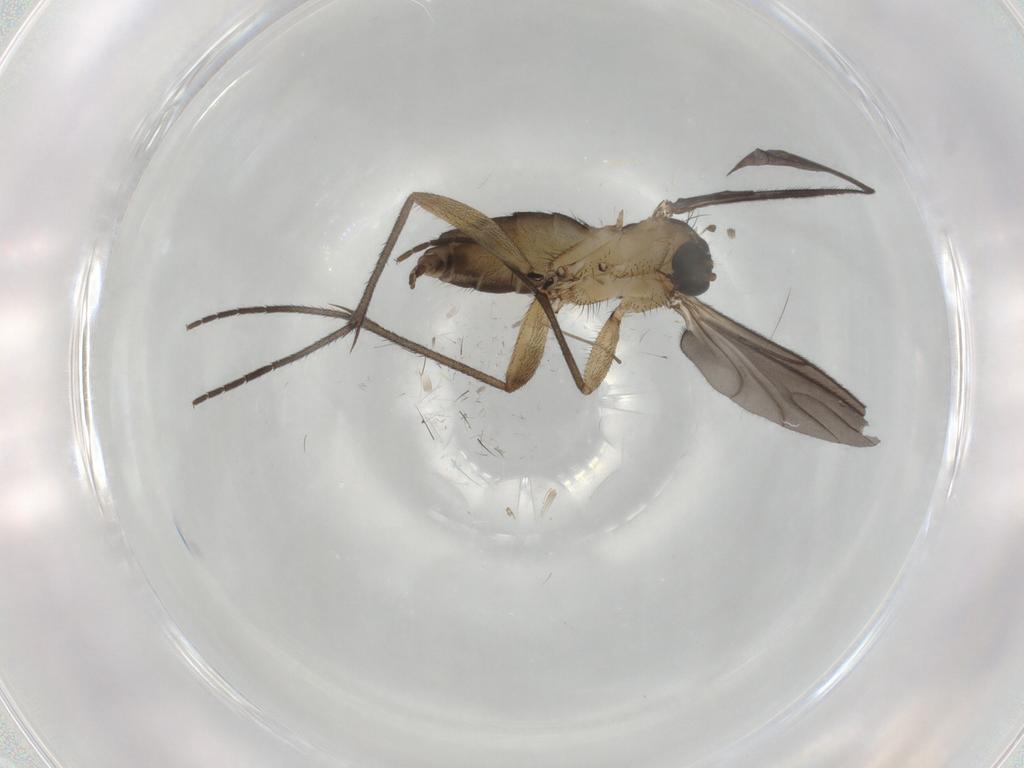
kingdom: Animalia
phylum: Arthropoda
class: Insecta
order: Diptera
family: Sciaridae
